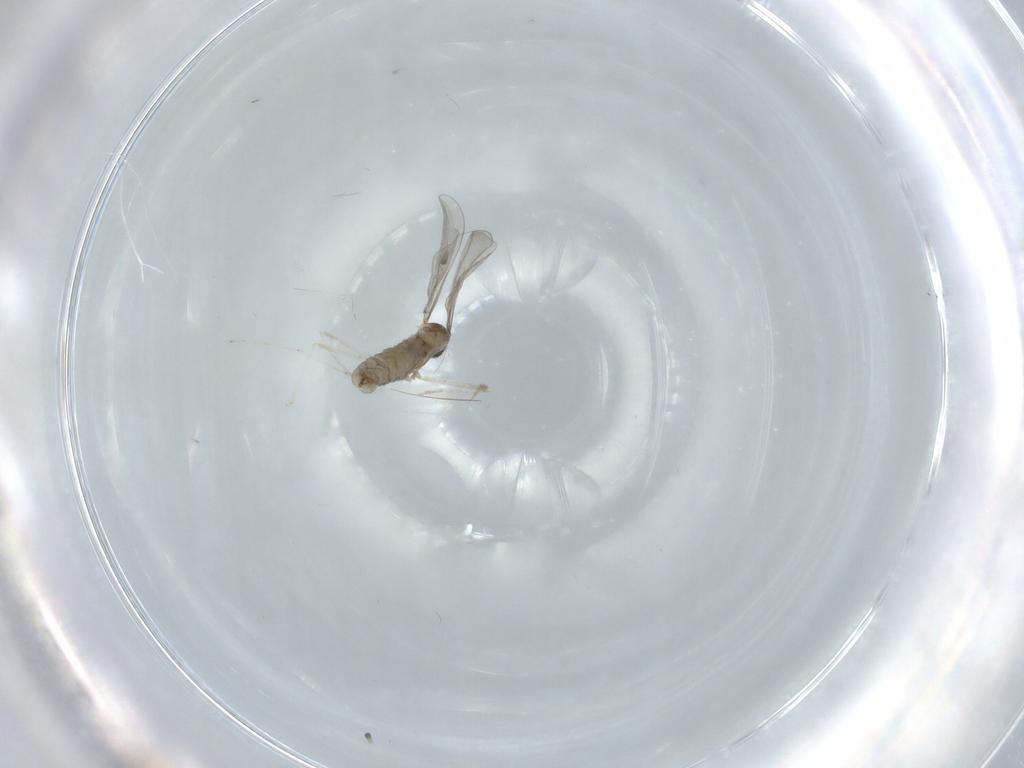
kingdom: Animalia
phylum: Arthropoda
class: Insecta
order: Diptera
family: Cecidomyiidae
